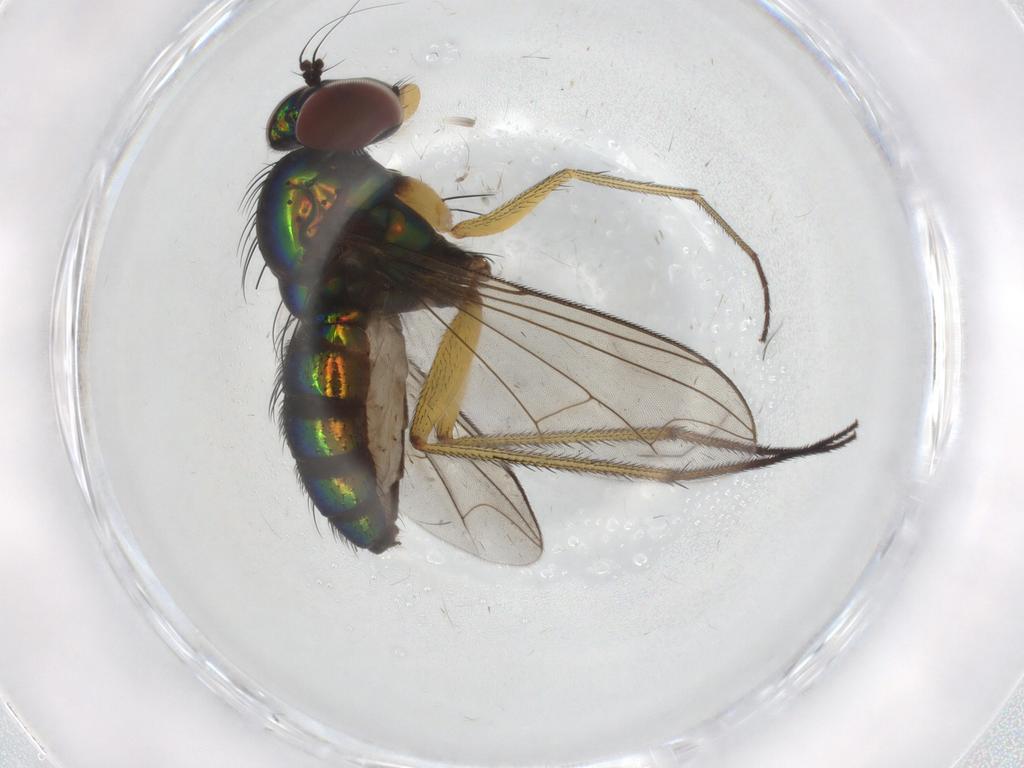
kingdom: Animalia
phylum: Arthropoda
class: Insecta
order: Diptera
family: Dolichopodidae
